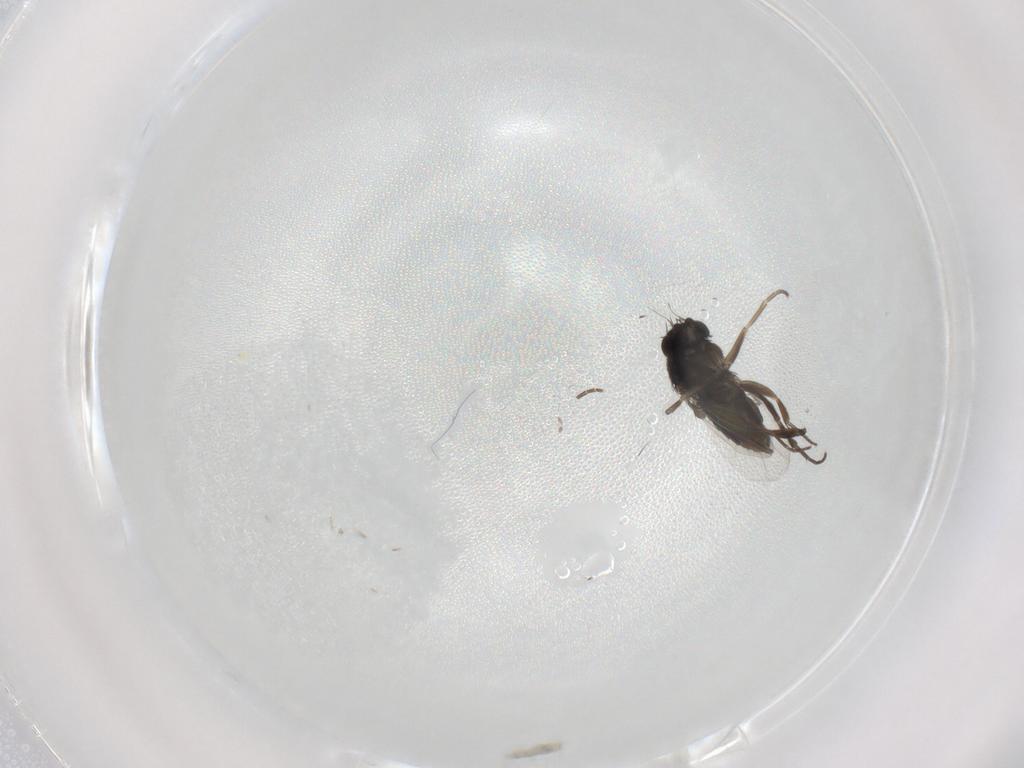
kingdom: Animalia
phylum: Arthropoda
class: Insecta
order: Diptera
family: Phoridae
